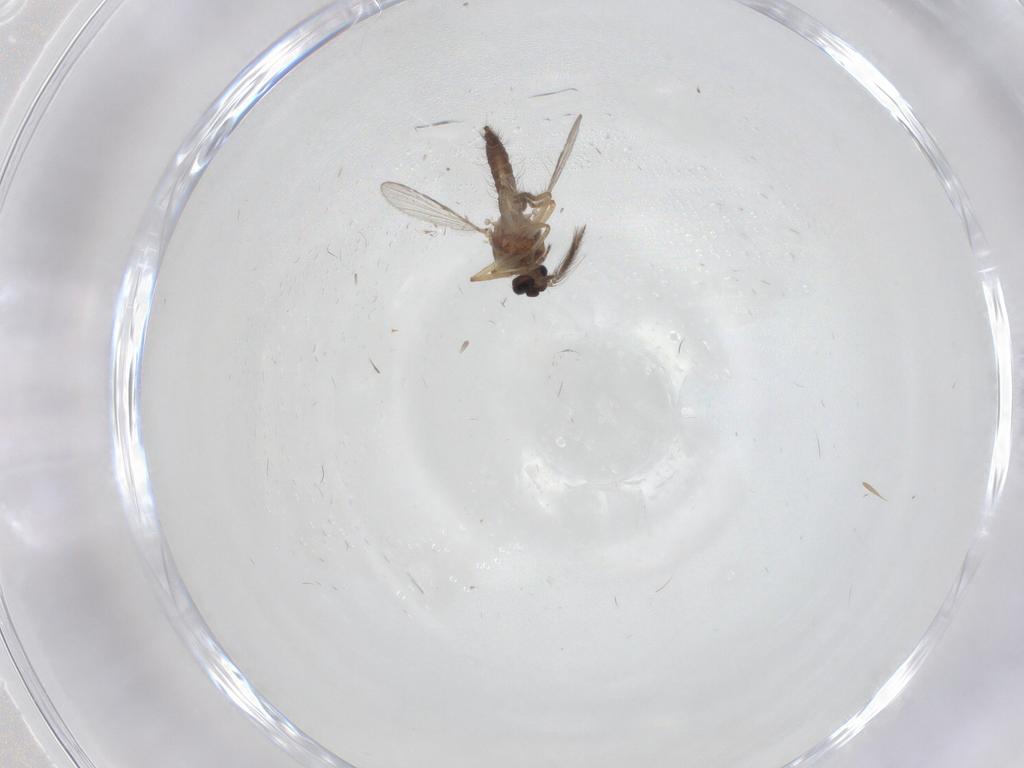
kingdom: Animalia
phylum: Arthropoda
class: Insecta
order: Diptera
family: Ceratopogonidae
